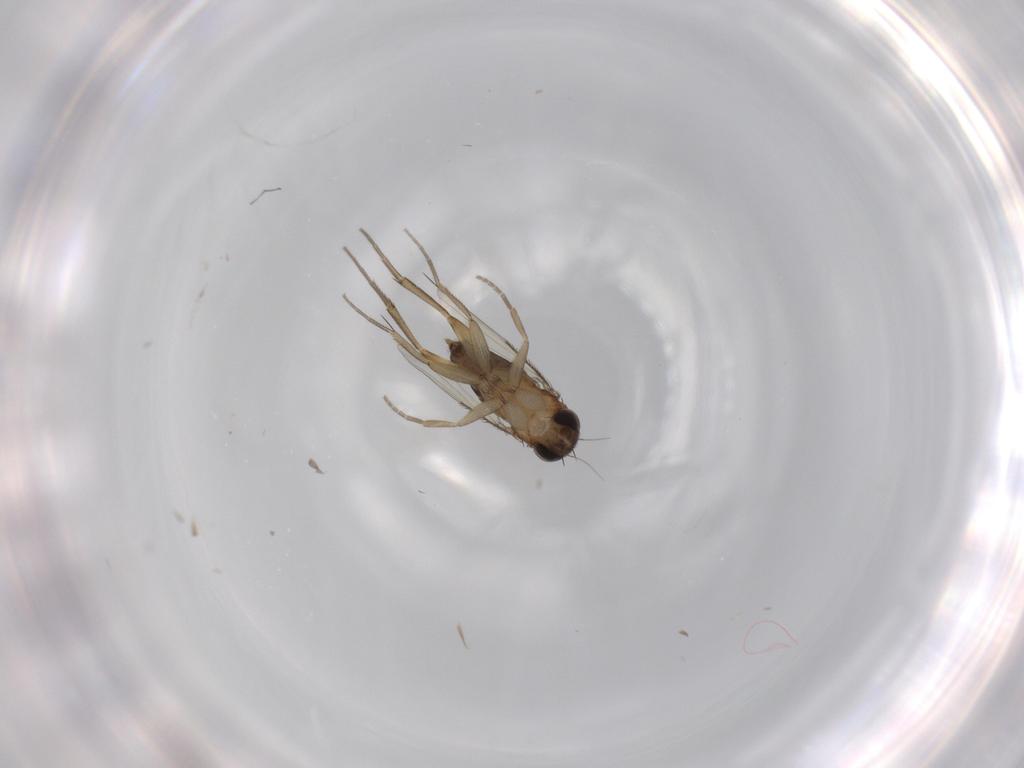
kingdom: Animalia
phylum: Arthropoda
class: Insecta
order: Diptera
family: Phoridae
